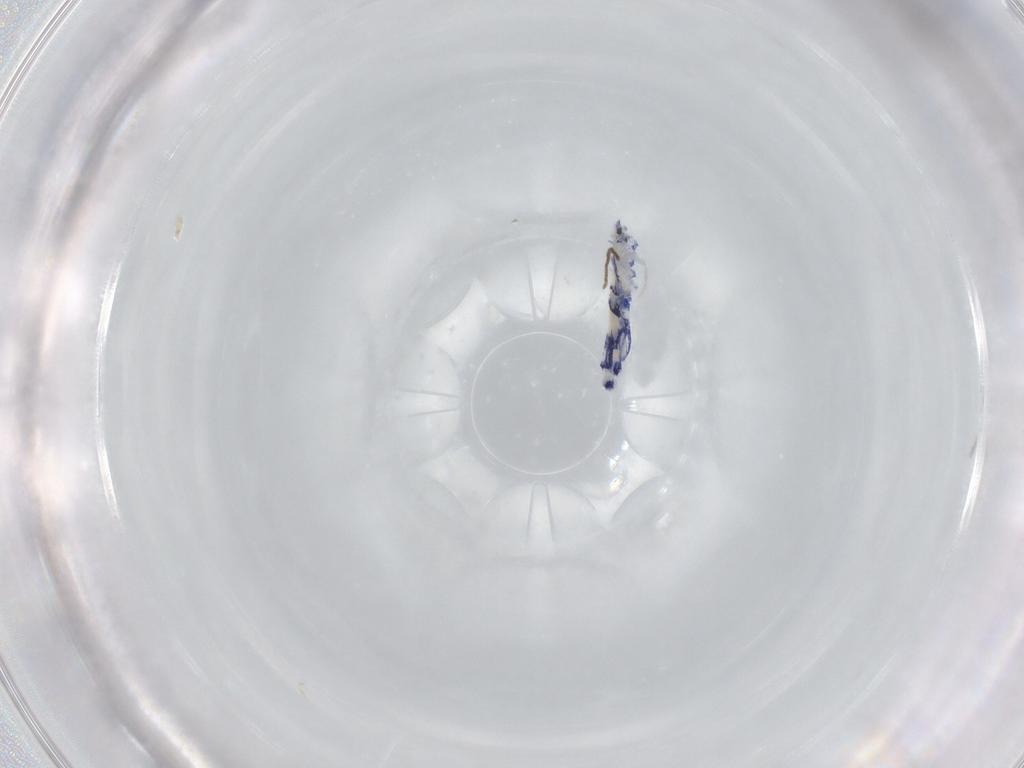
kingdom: Animalia
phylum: Arthropoda
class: Collembola
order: Entomobryomorpha
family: Entomobryidae
